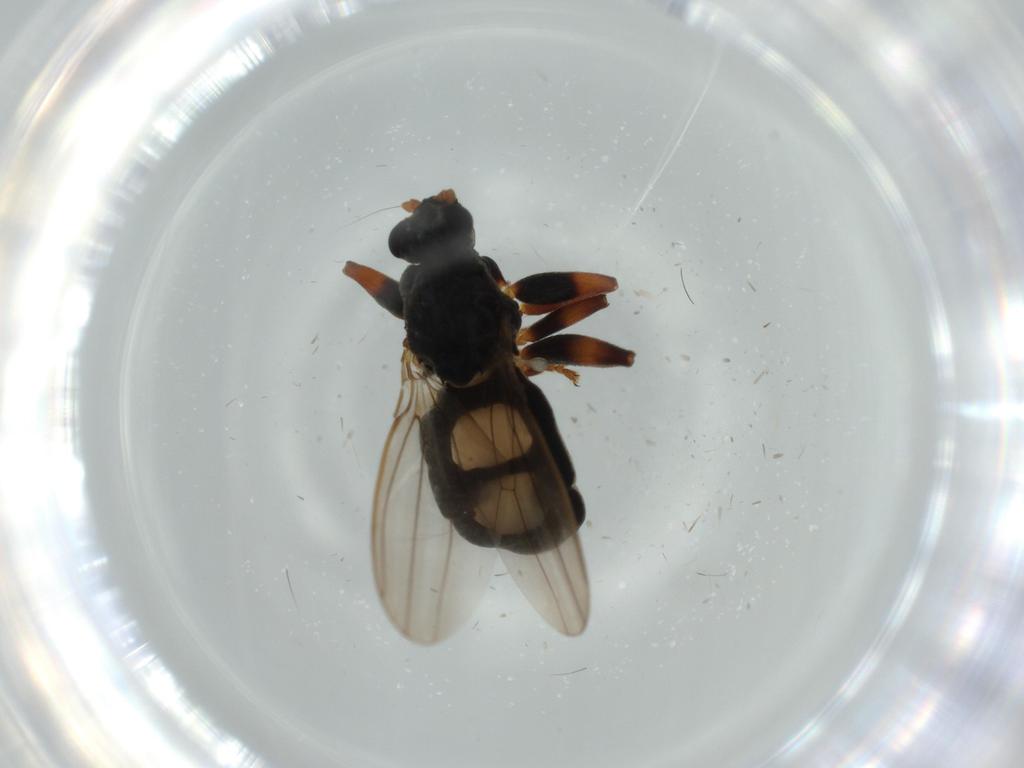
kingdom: Animalia
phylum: Arthropoda
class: Insecta
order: Diptera
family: Sphaeroceridae
